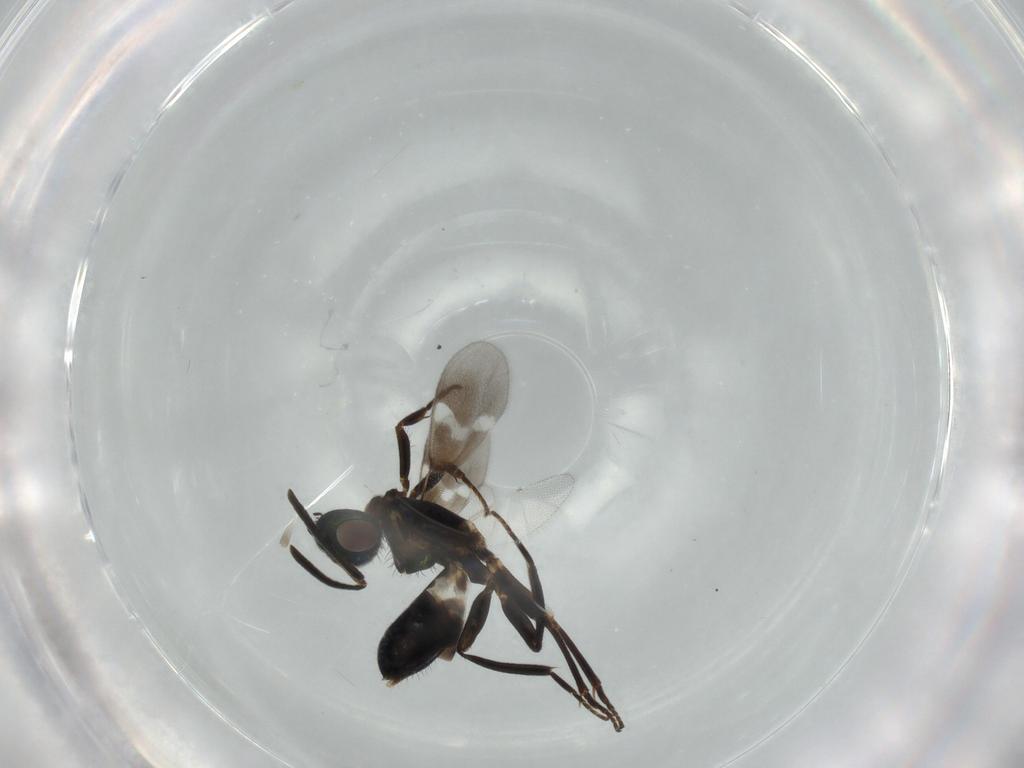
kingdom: Animalia
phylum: Arthropoda
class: Insecta
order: Hymenoptera
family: Eupelmidae
